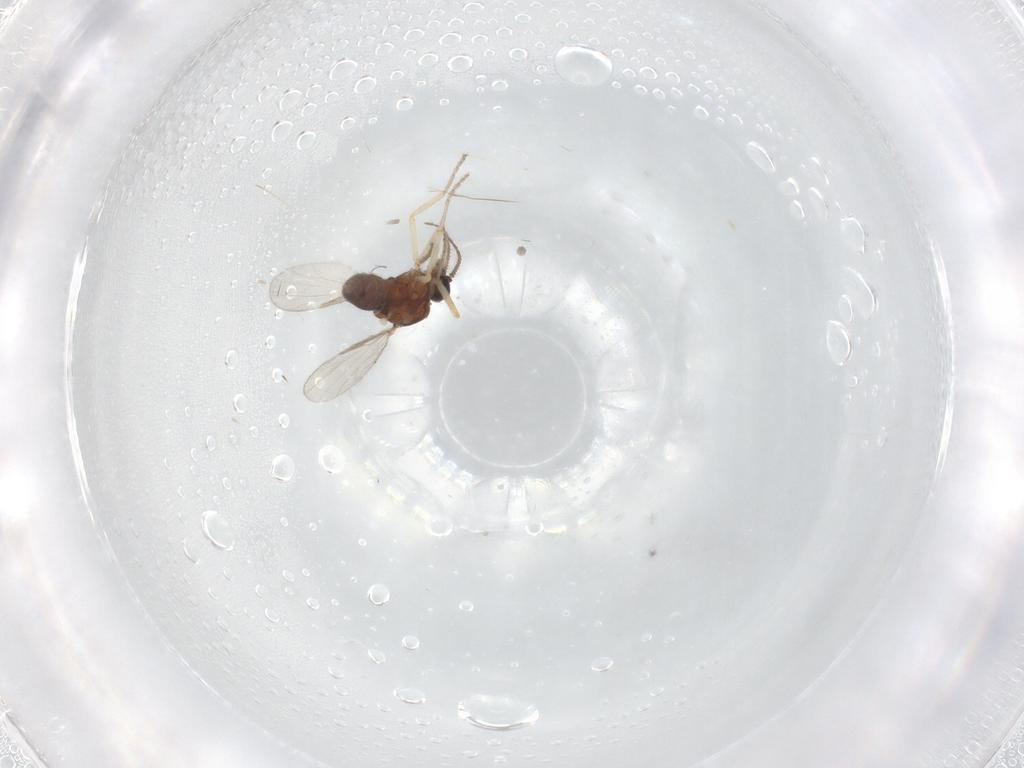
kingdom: Animalia
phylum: Arthropoda
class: Insecta
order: Diptera
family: Ceratopogonidae
